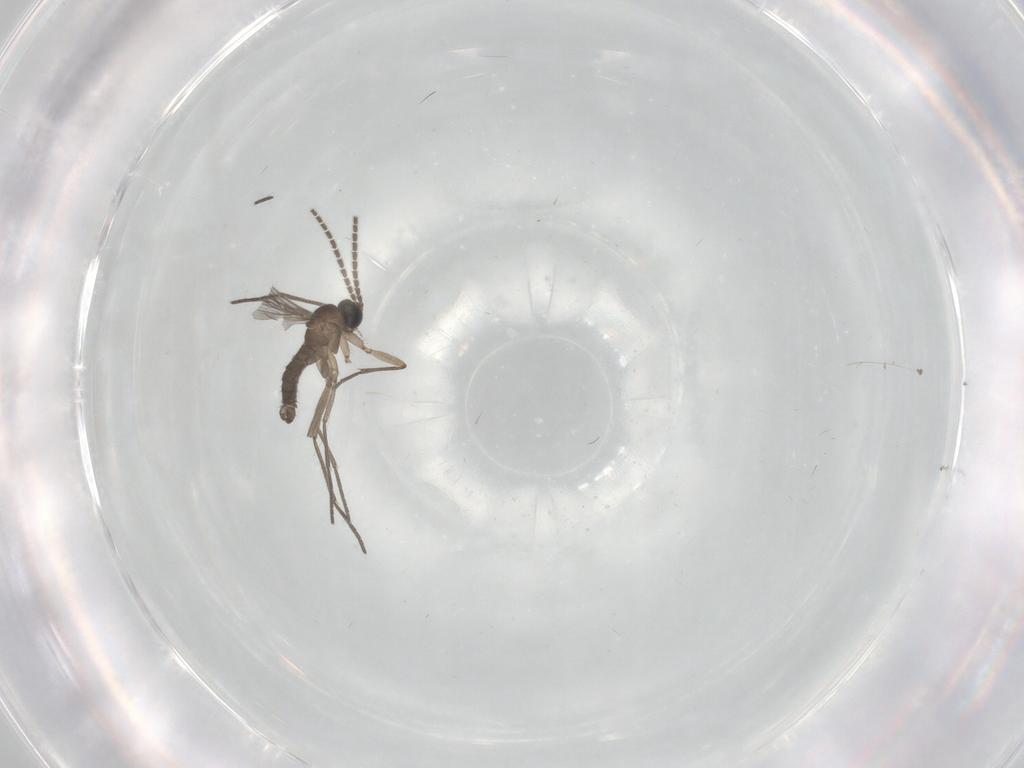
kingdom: Animalia
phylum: Arthropoda
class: Insecta
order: Diptera
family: Sciaridae
